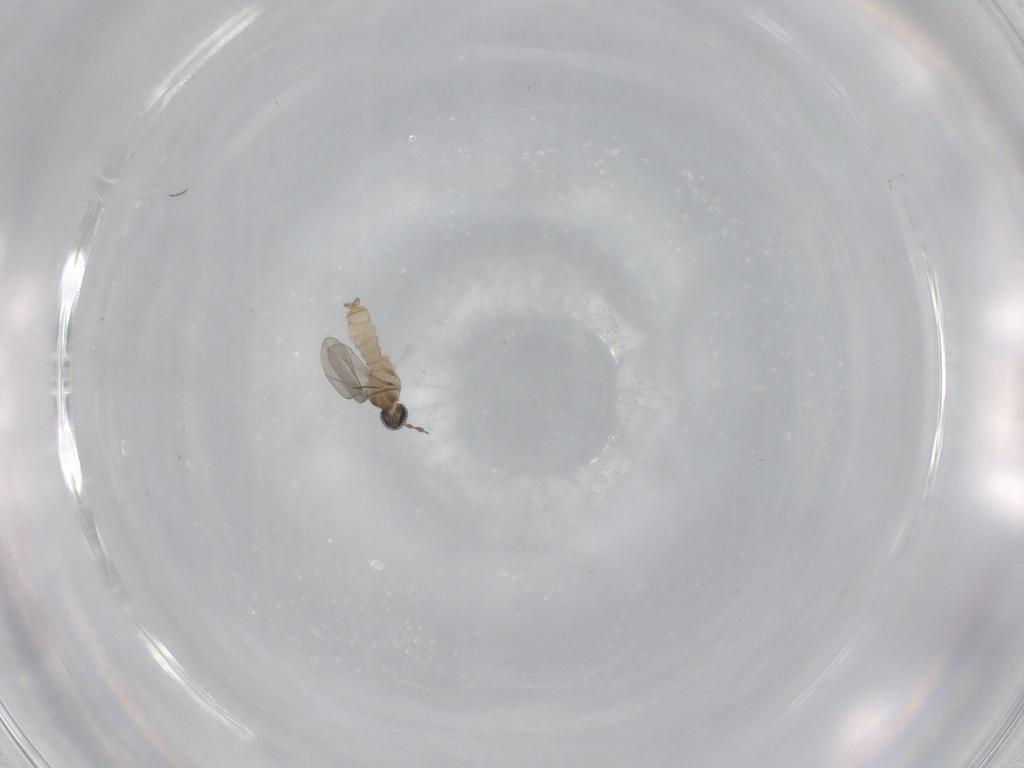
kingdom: Animalia
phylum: Arthropoda
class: Insecta
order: Diptera
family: Cecidomyiidae
